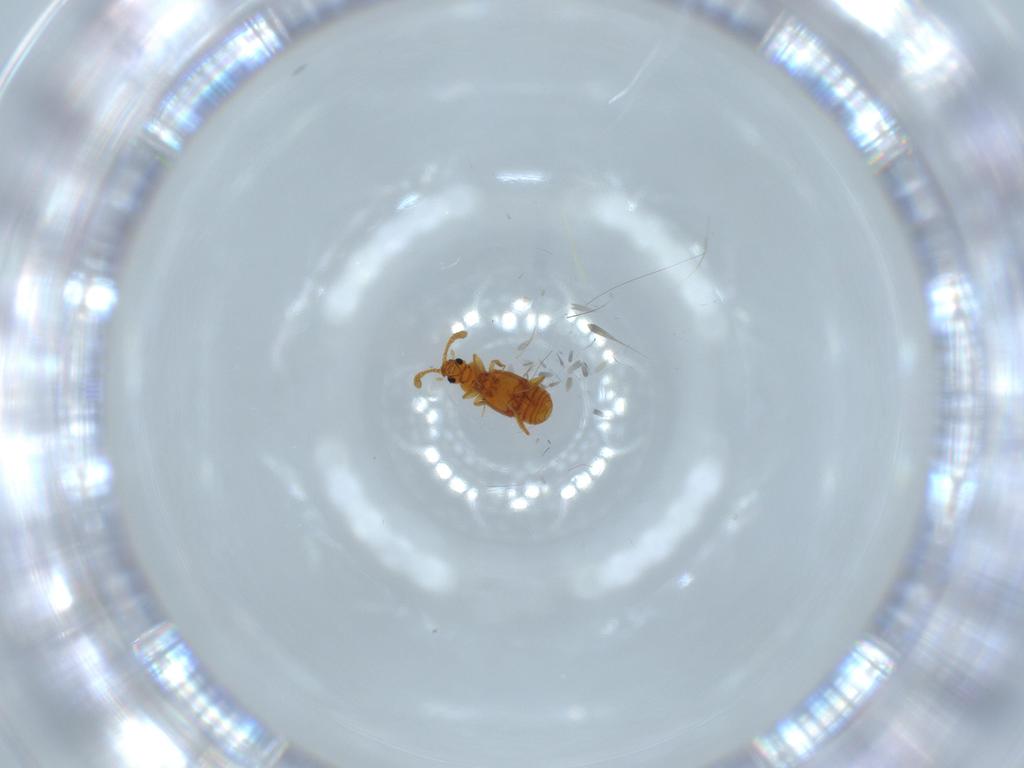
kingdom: Animalia
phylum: Arthropoda
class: Insecta
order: Coleoptera
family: Staphylinidae
